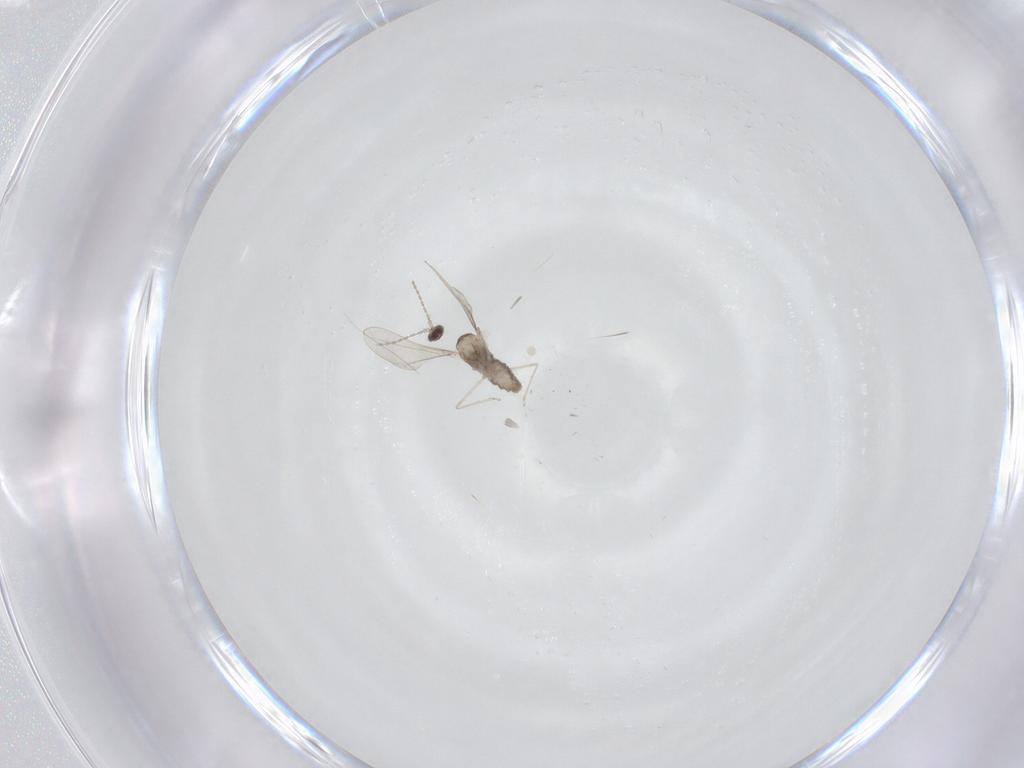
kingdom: Animalia
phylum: Arthropoda
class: Insecta
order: Diptera
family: Cecidomyiidae
